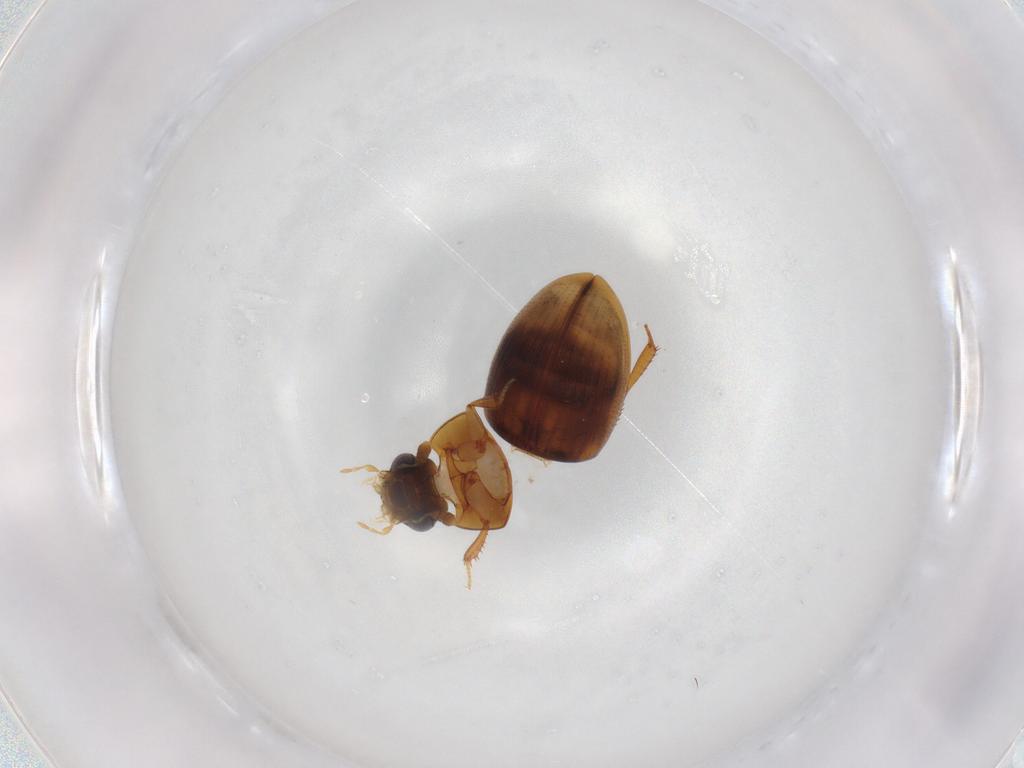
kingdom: Animalia
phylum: Arthropoda
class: Insecta
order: Coleoptera
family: Hydrophilidae
